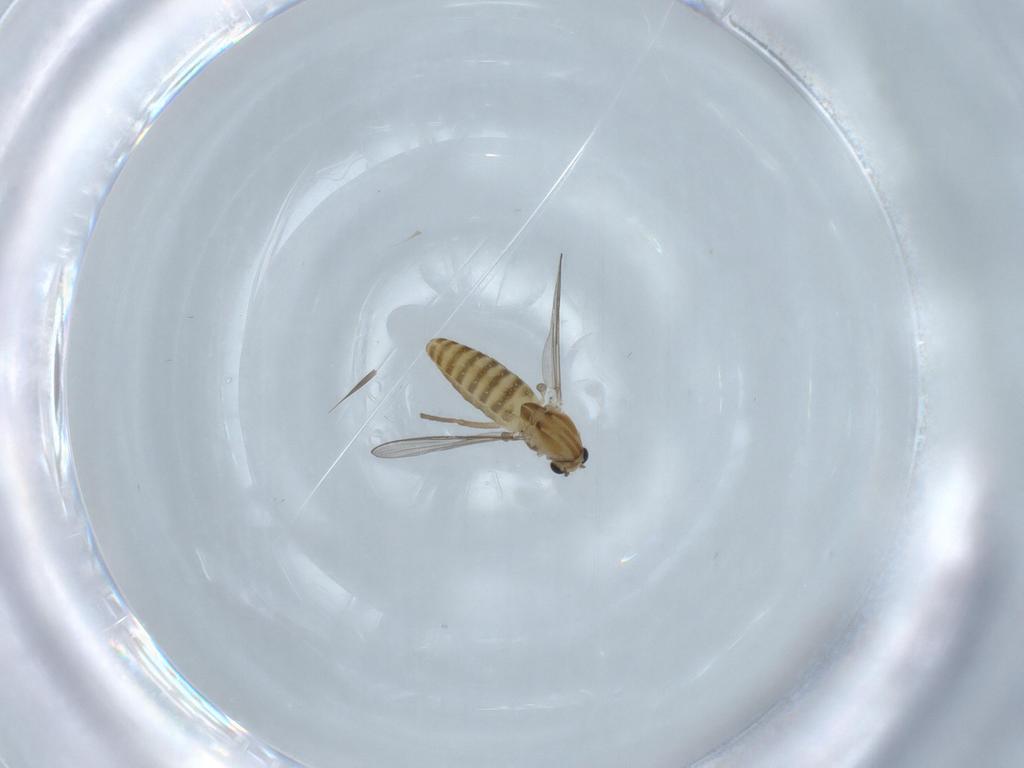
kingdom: Animalia
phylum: Arthropoda
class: Insecta
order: Diptera
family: Chironomidae
